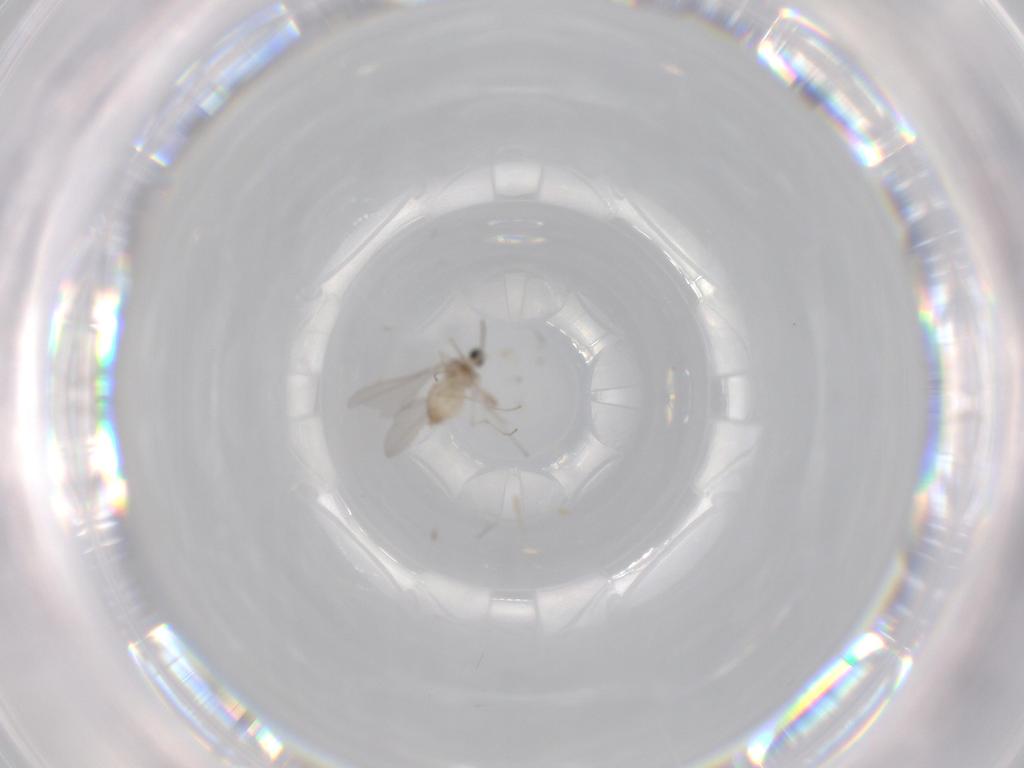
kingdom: Animalia
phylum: Arthropoda
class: Insecta
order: Diptera
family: Cecidomyiidae
